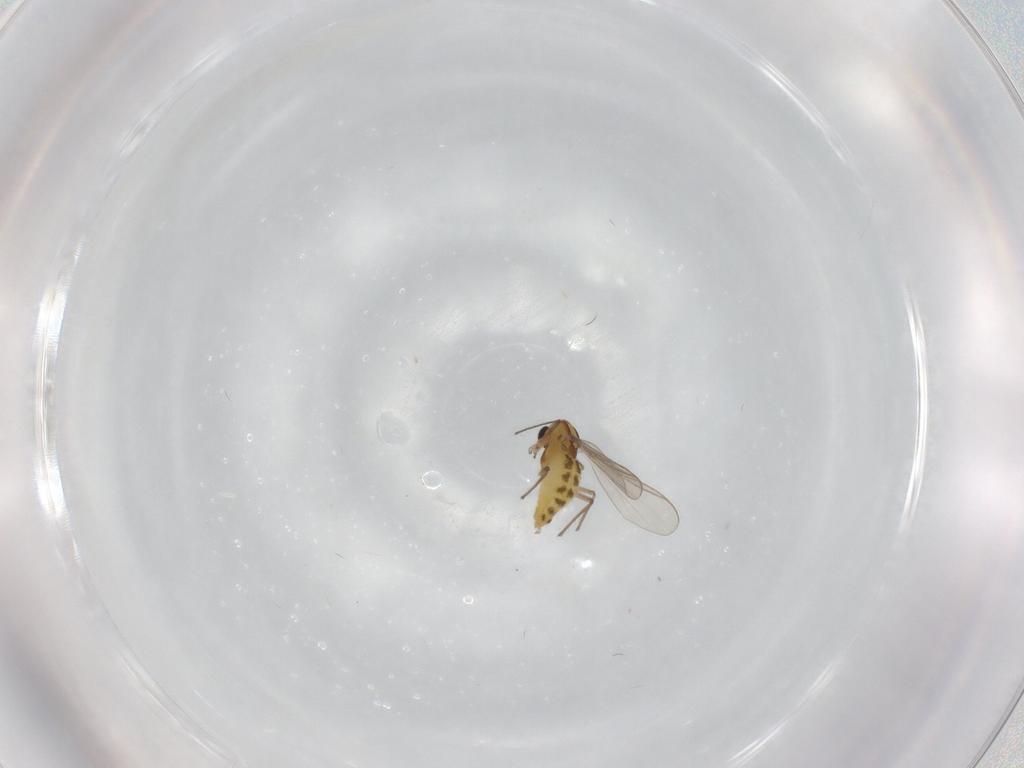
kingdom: Animalia
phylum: Arthropoda
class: Insecta
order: Diptera
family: Chironomidae
